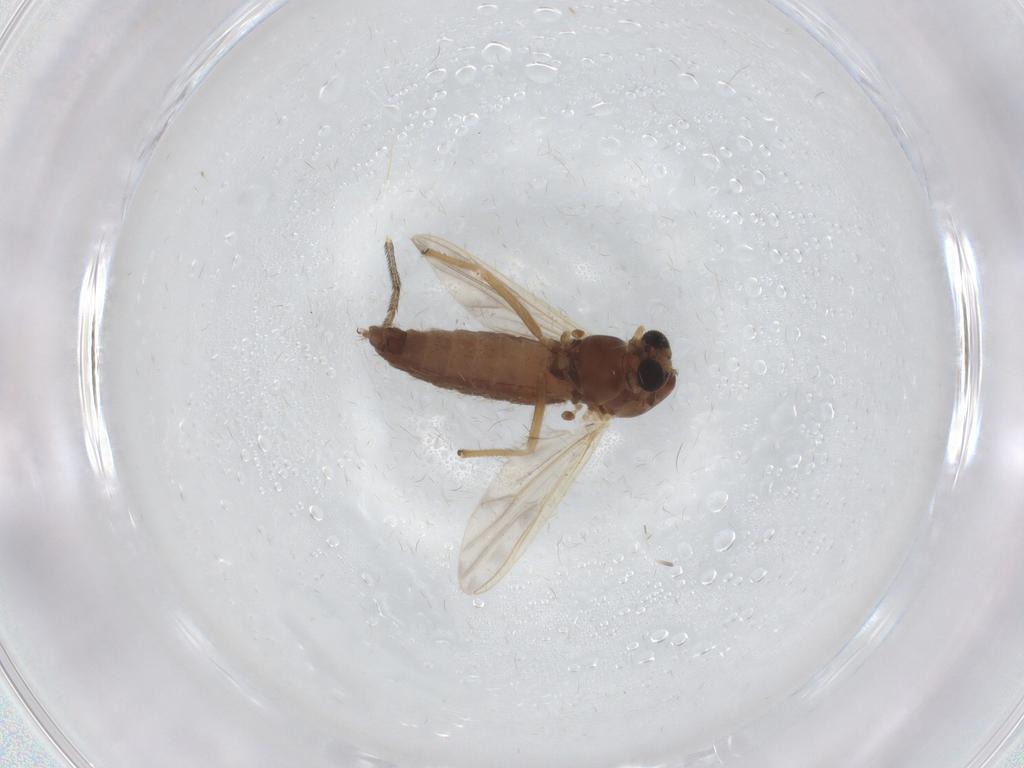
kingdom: Animalia
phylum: Arthropoda
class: Insecta
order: Diptera
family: Chironomidae
